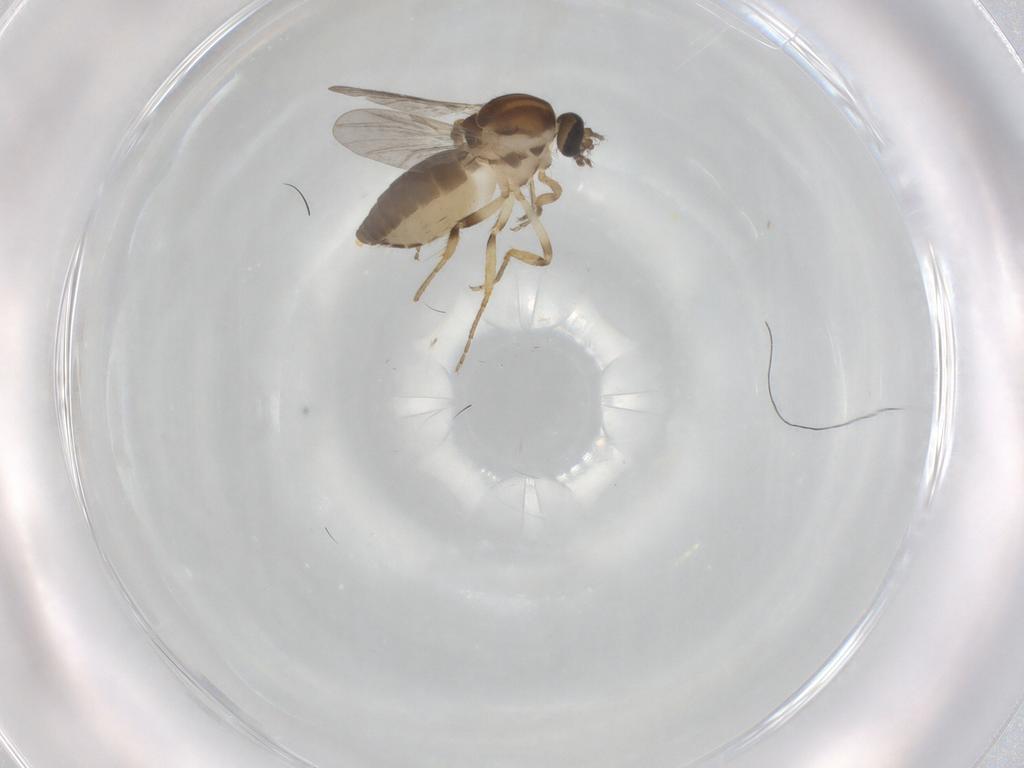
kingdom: Animalia
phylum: Arthropoda
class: Insecta
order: Diptera
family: Ceratopogonidae
